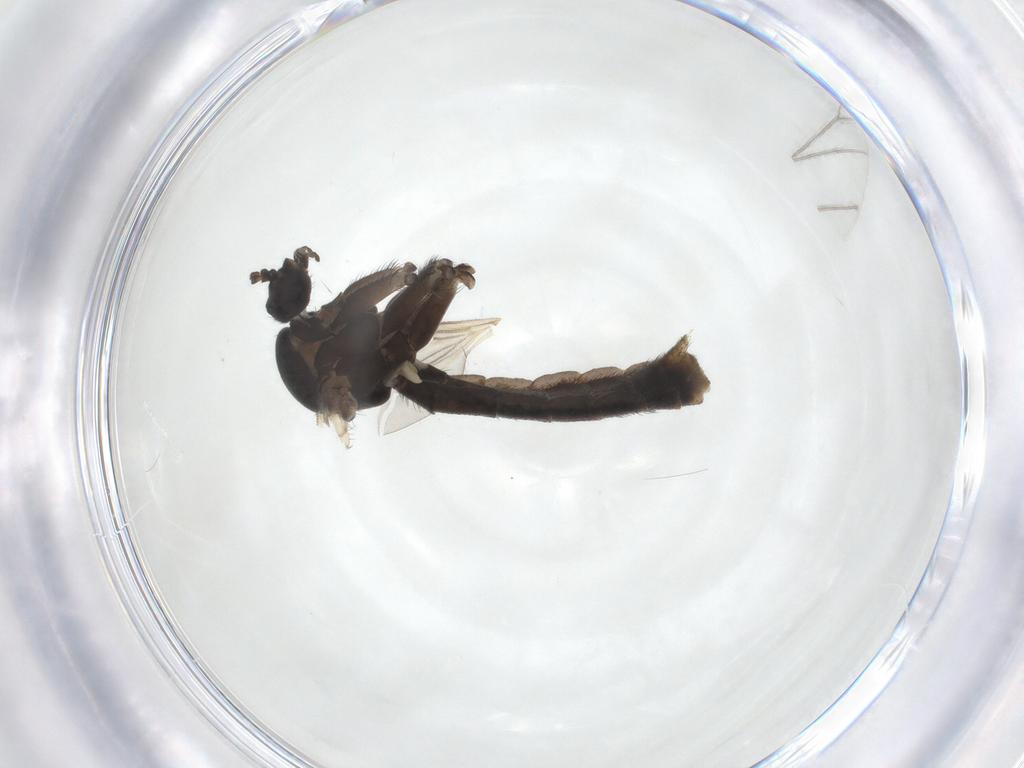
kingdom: Animalia
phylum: Arthropoda
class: Insecta
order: Diptera
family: Keroplatidae
